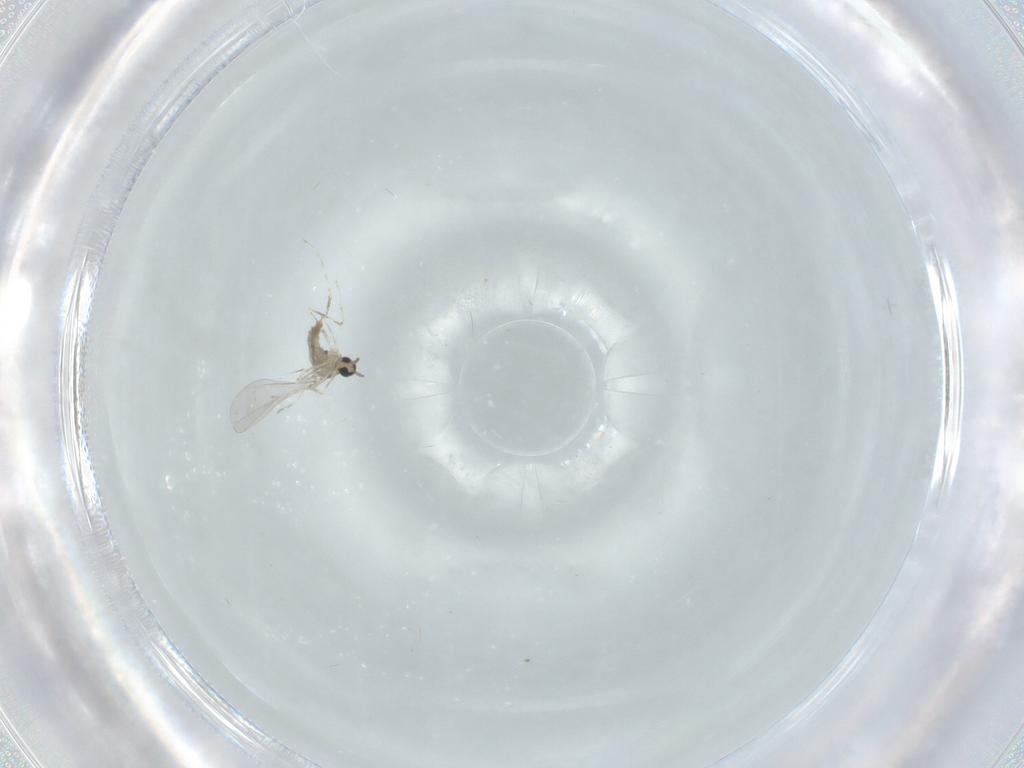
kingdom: Animalia
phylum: Arthropoda
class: Insecta
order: Diptera
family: Cecidomyiidae
